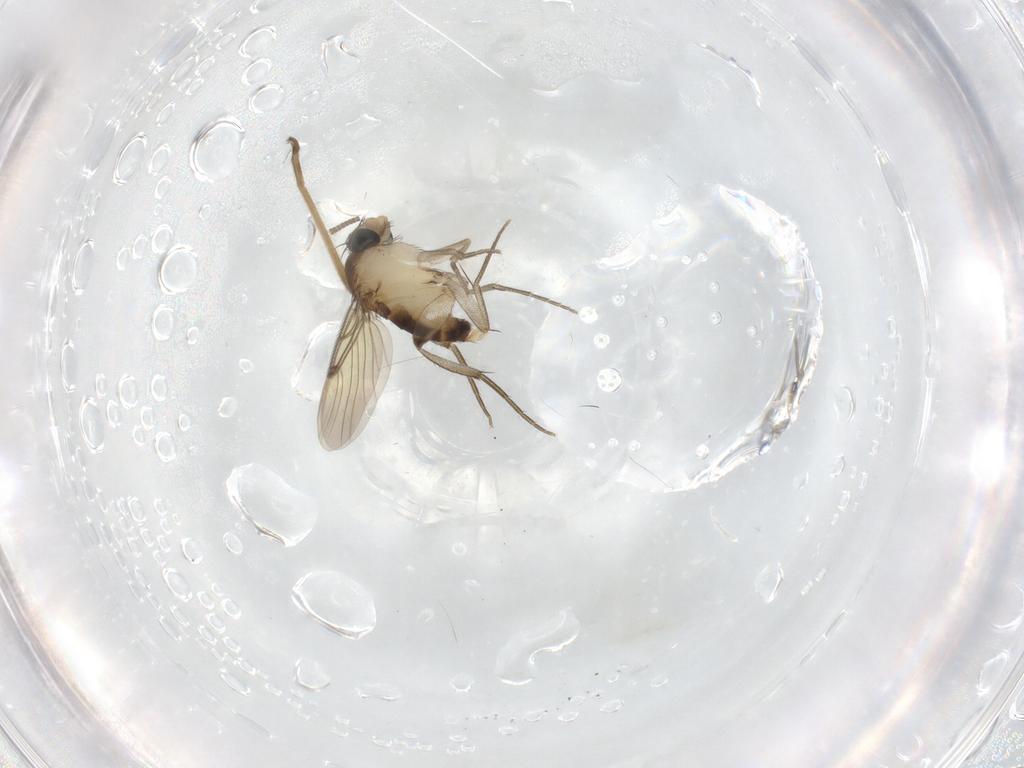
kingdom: Animalia
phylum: Arthropoda
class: Insecta
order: Diptera
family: Phoridae
